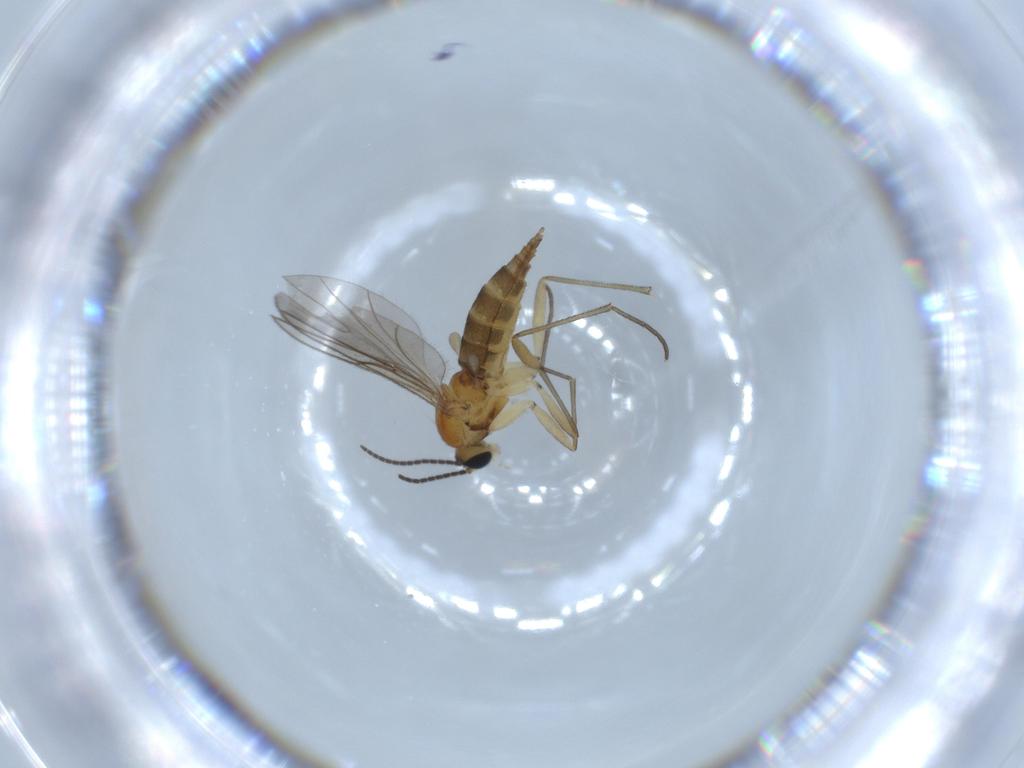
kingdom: Animalia
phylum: Arthropoda
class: Insecta
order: Diptera
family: Sciaridae
